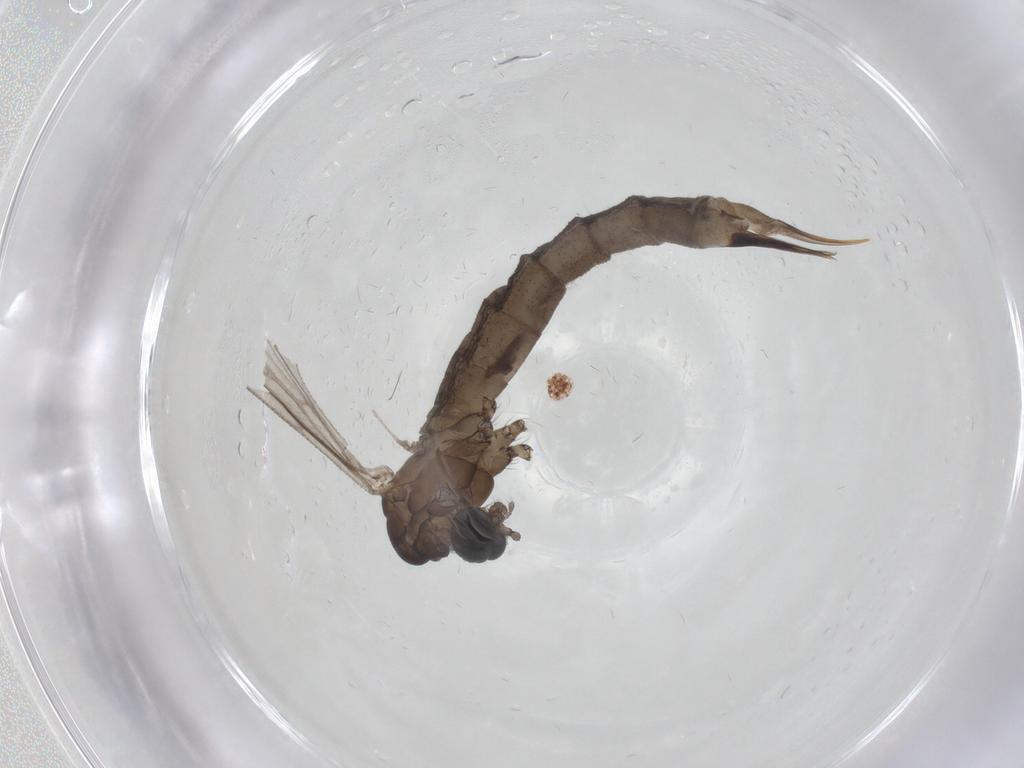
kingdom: Animalia
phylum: Arthropoda
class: Insecta
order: Diptera
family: Limoniidae
